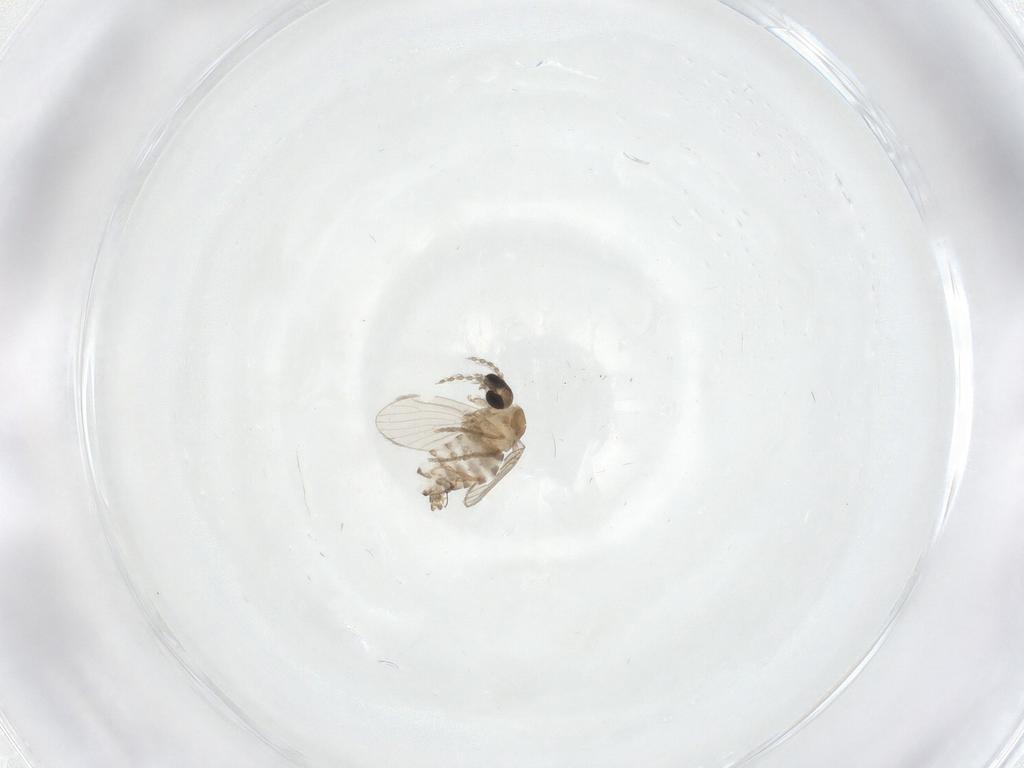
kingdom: Animalia
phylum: Arthropoda
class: Insecta
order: Diptera
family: Cecidomyiidae
